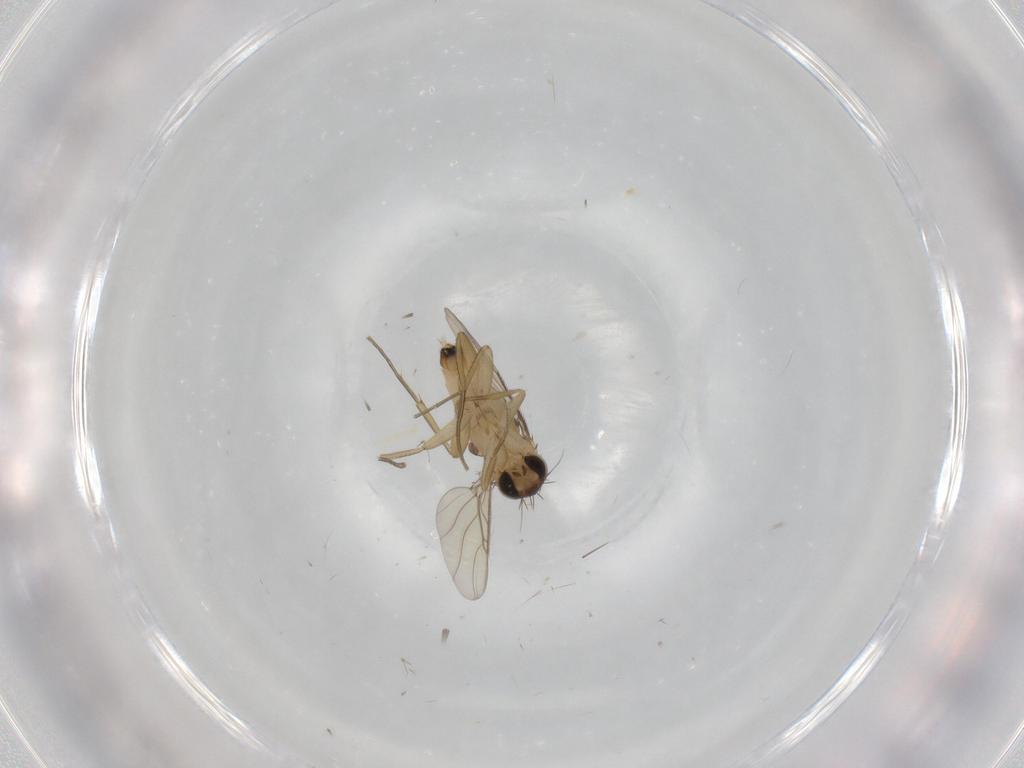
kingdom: Animalia
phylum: Arthropoda
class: Insecta
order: Diptera
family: Phoridae
